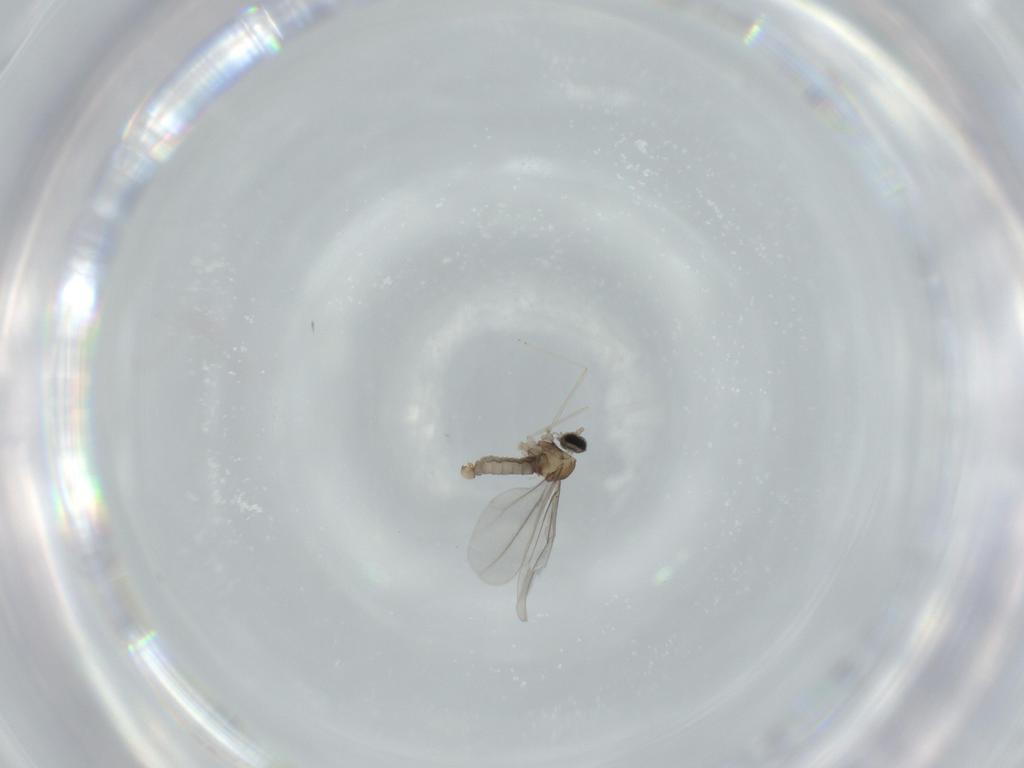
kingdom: Animalia
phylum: Arthropoda
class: Insecta
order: Diptera
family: Cecidomyiidae
